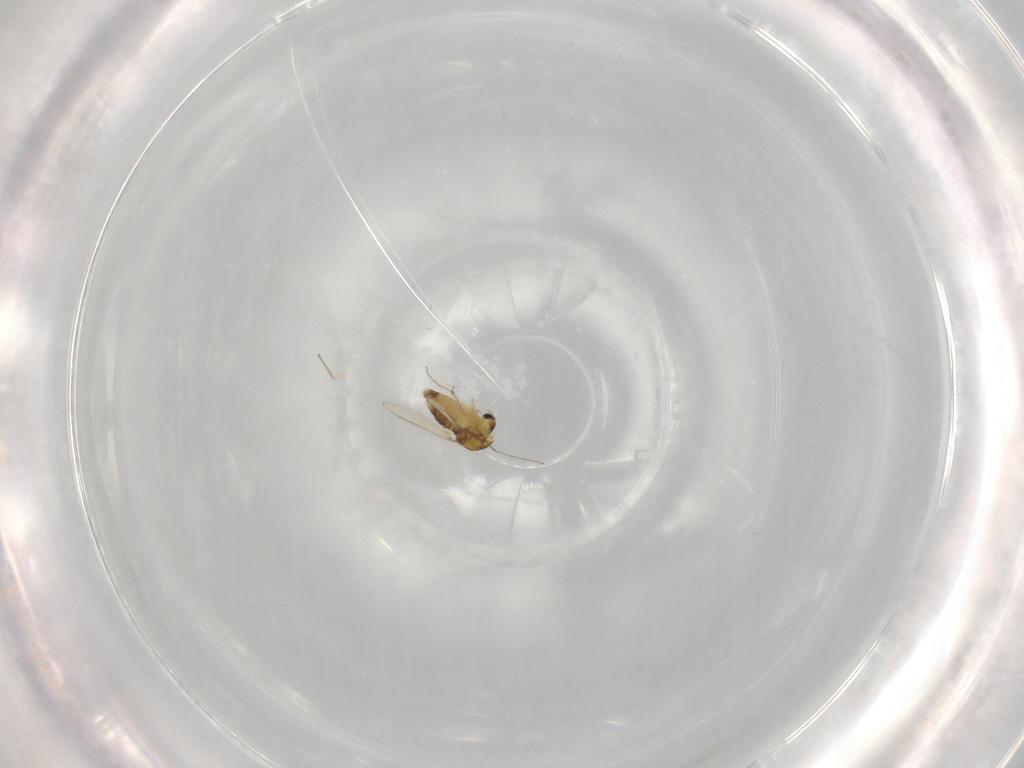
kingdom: Animalia
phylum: Arthropoda
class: Insecta
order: Diptera
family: Chironomidae
